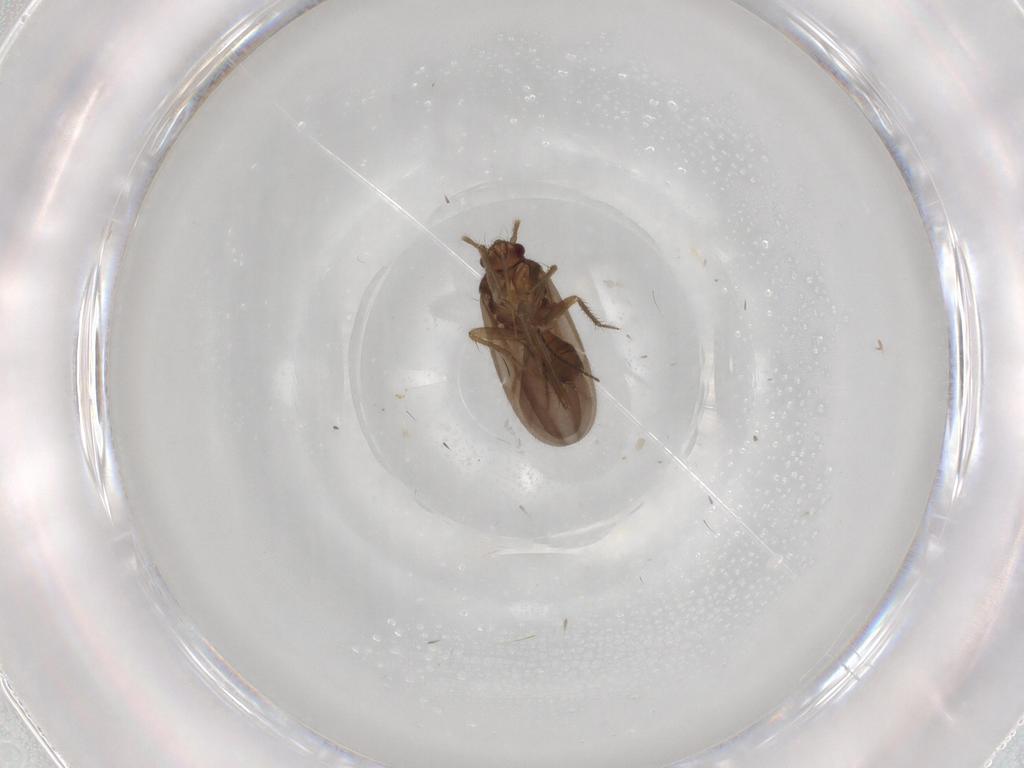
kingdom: Animalia
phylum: Arthropoda
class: Insecta
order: Hemiptera
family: Ceratocombidae
